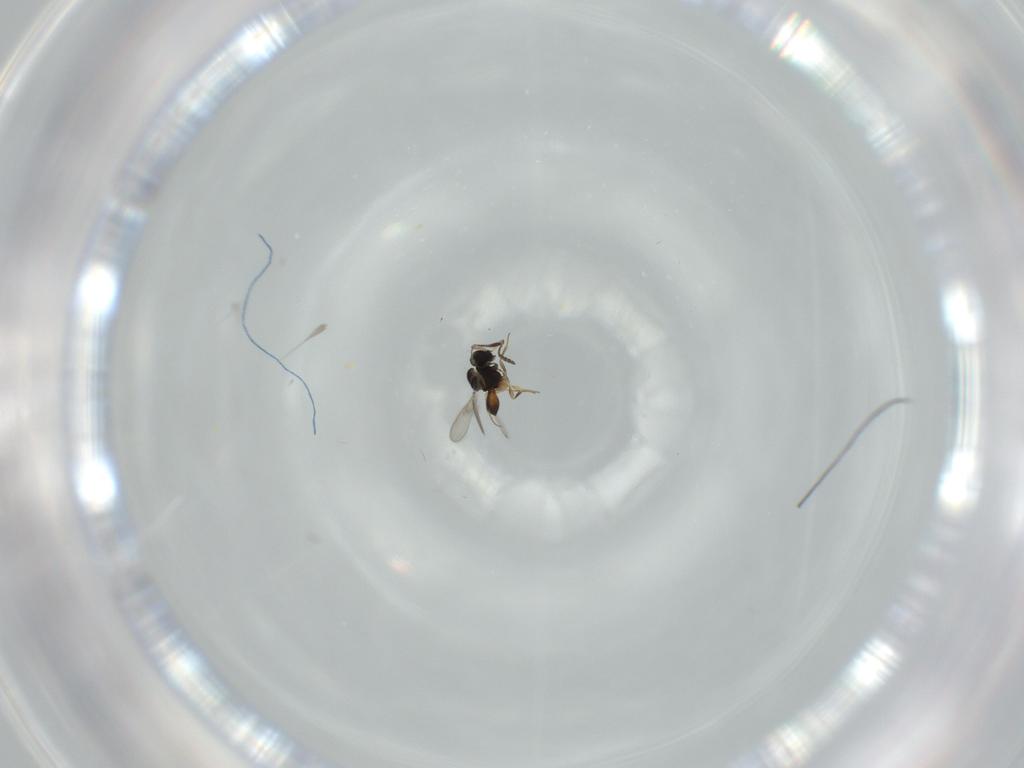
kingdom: Animalia
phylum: Arthropoda
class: Insecta
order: Hymenoptera
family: Scelionidae
